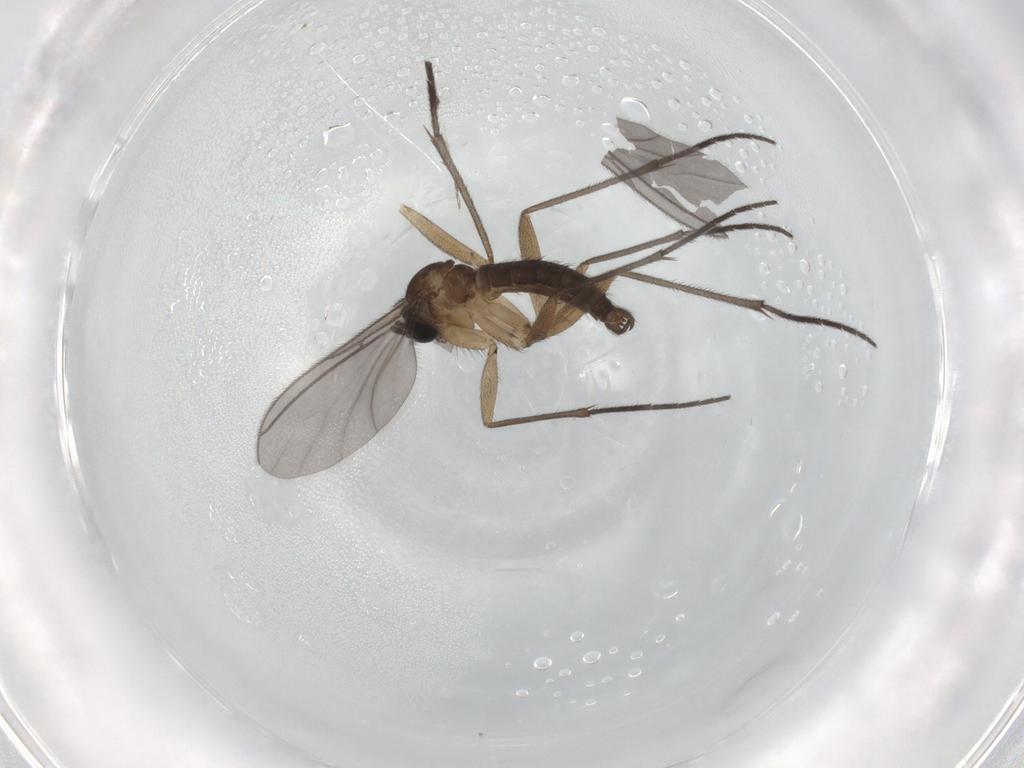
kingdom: Animalia
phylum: Arthropoda
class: Insecta
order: Diptera
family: Sciaridae
